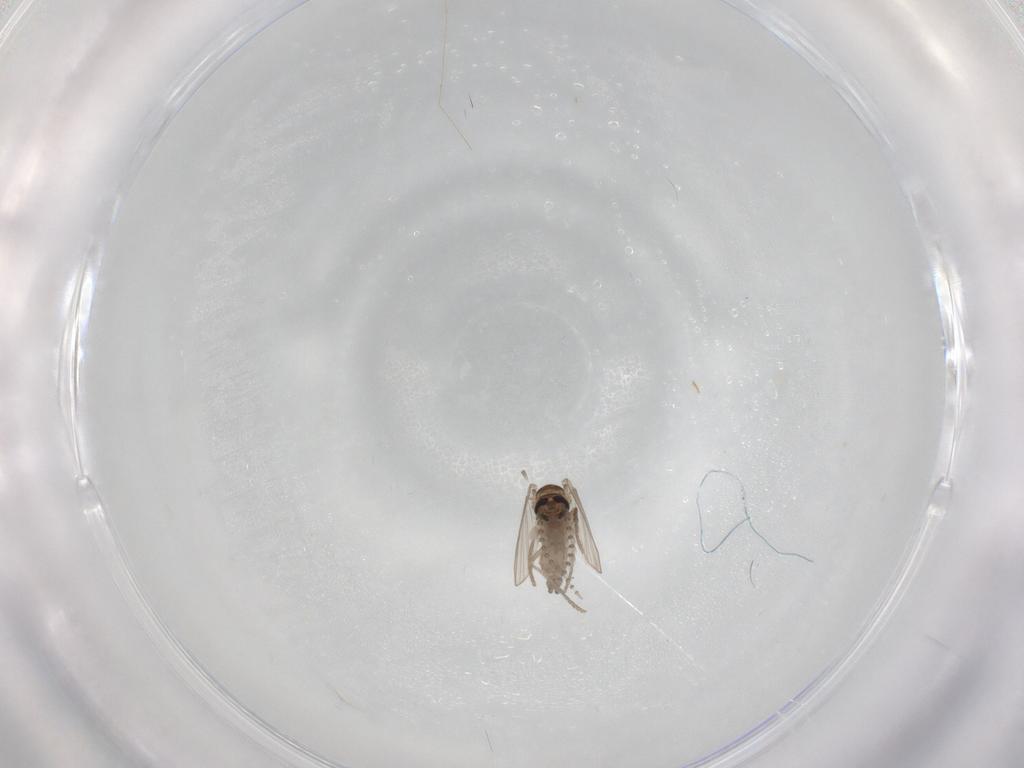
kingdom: Animalia
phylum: Arthropoda
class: Insecta
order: Diptera
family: Psychodidae
